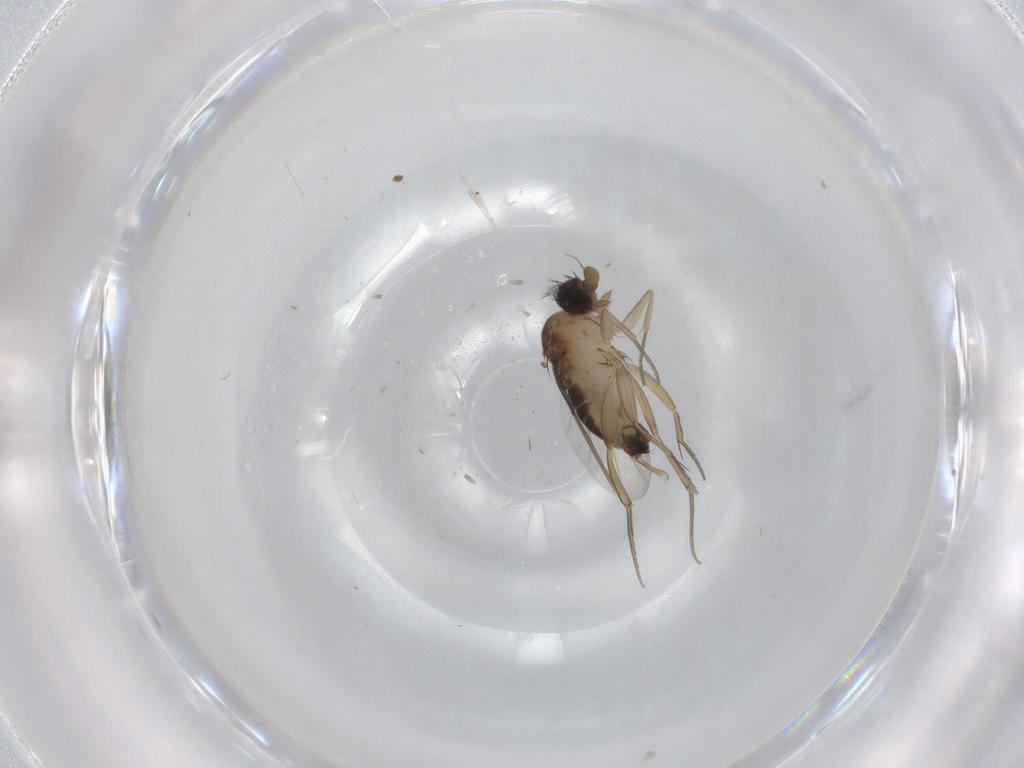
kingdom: Animalia
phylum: Arthropoda
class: Insecta
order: Diptera
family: Phoridae
